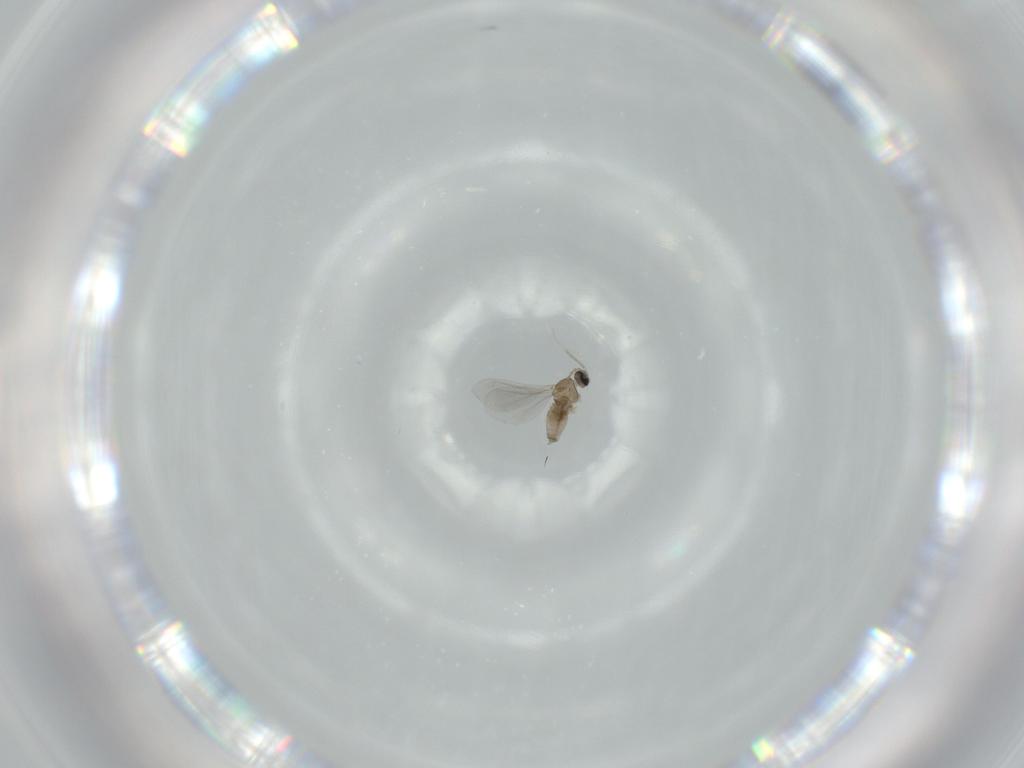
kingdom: Animalia
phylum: Arthropoda
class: Insecta
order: Diptera
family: Cecidomyiidae
